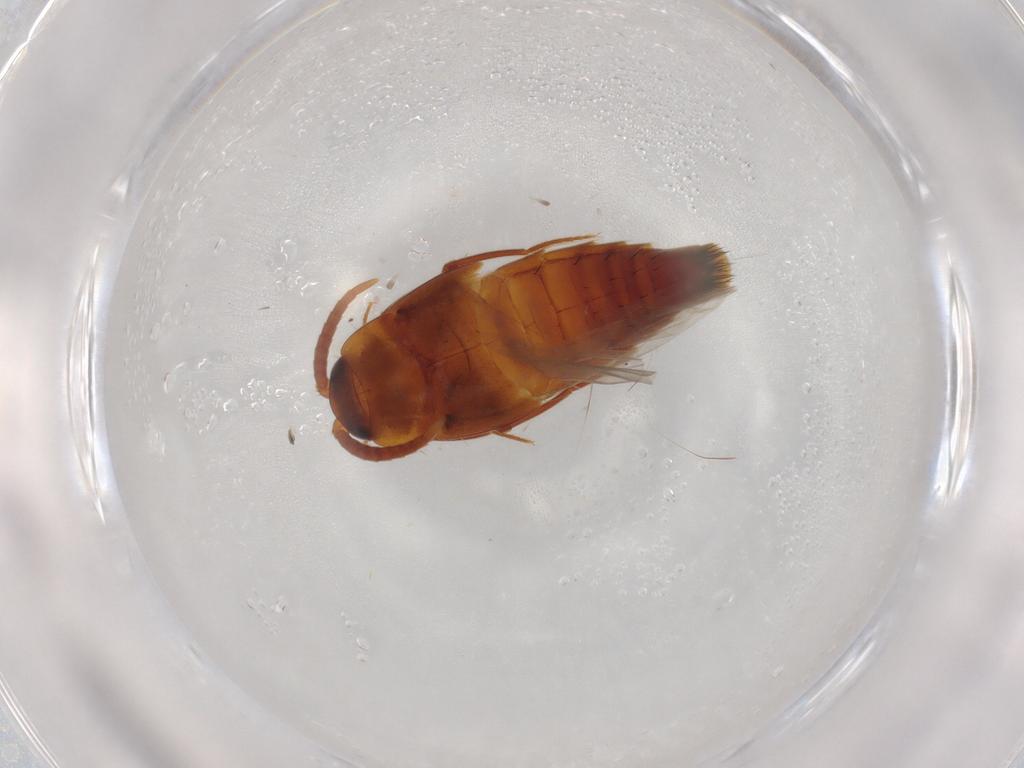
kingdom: Animalia
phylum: Arthropoda
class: Insecta
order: Coleoptera
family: Staphylinidae
